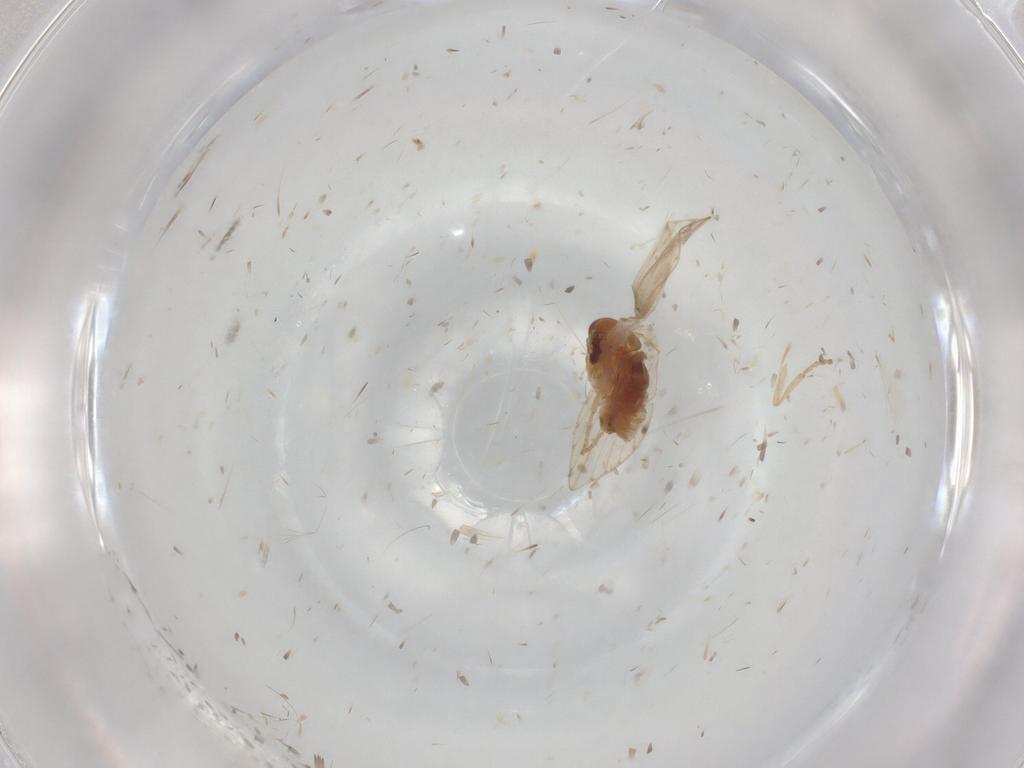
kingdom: Animalia
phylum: Arthropoda
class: Insecta
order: Diptera
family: Psychodidae
